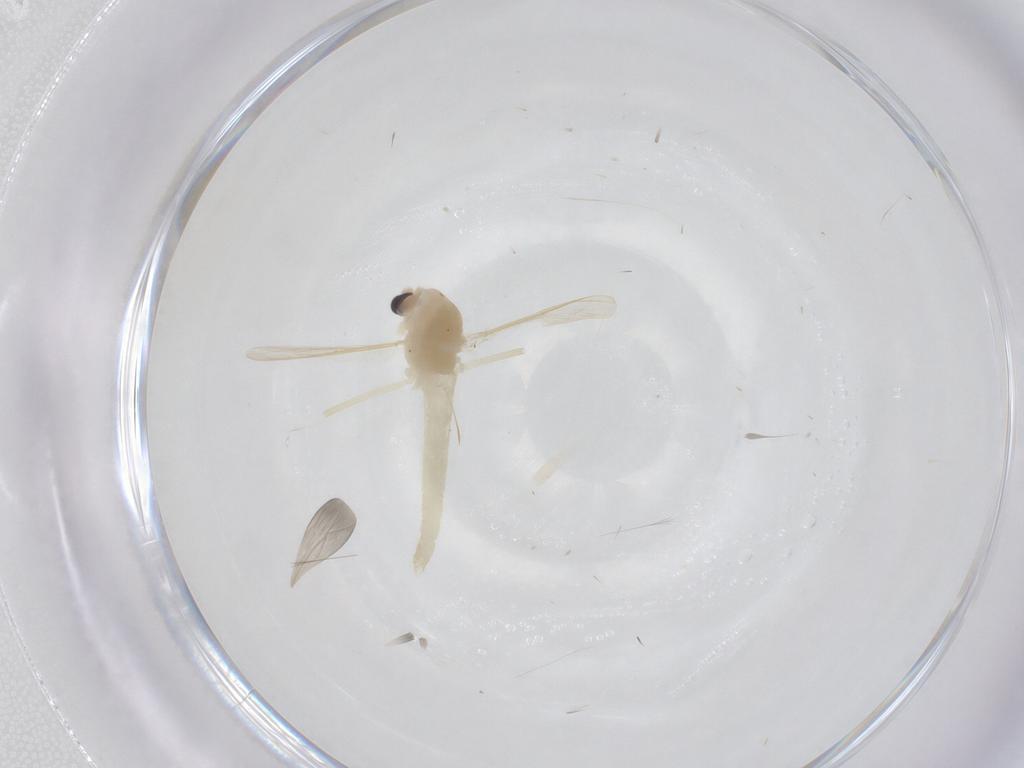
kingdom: Animalia
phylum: Arthropoda
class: Insecta
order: Diptera
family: Chironomidae
